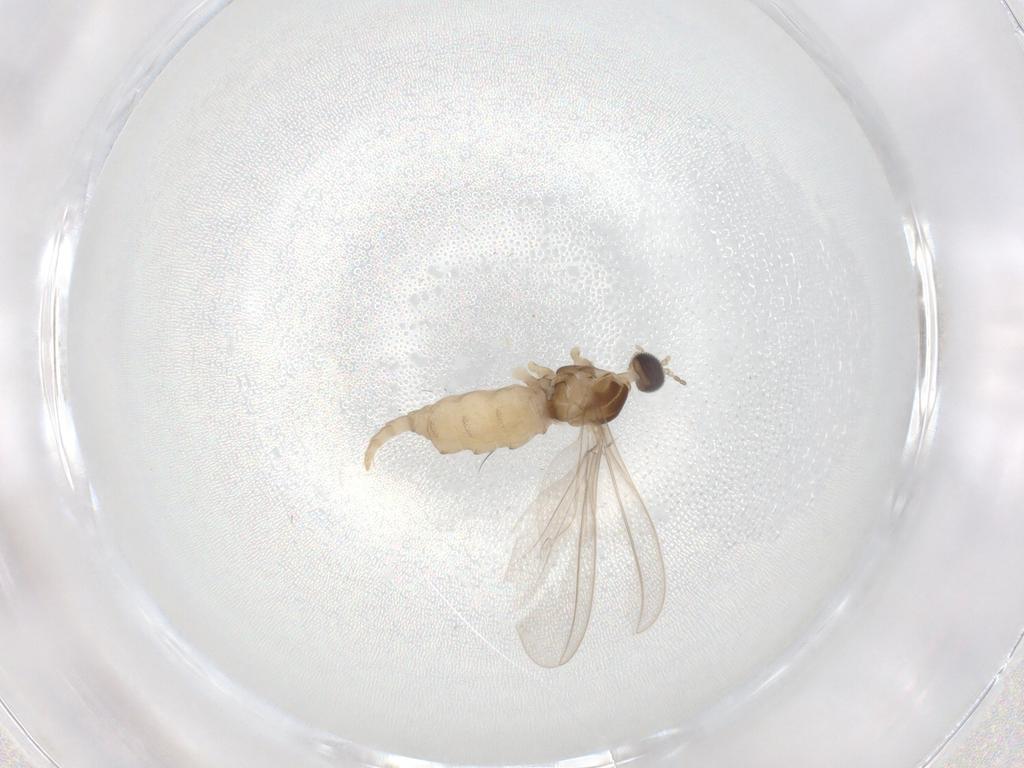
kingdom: Animalia
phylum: Arthropoda
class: Insecta
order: Diptera
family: Cecidomyiidae
